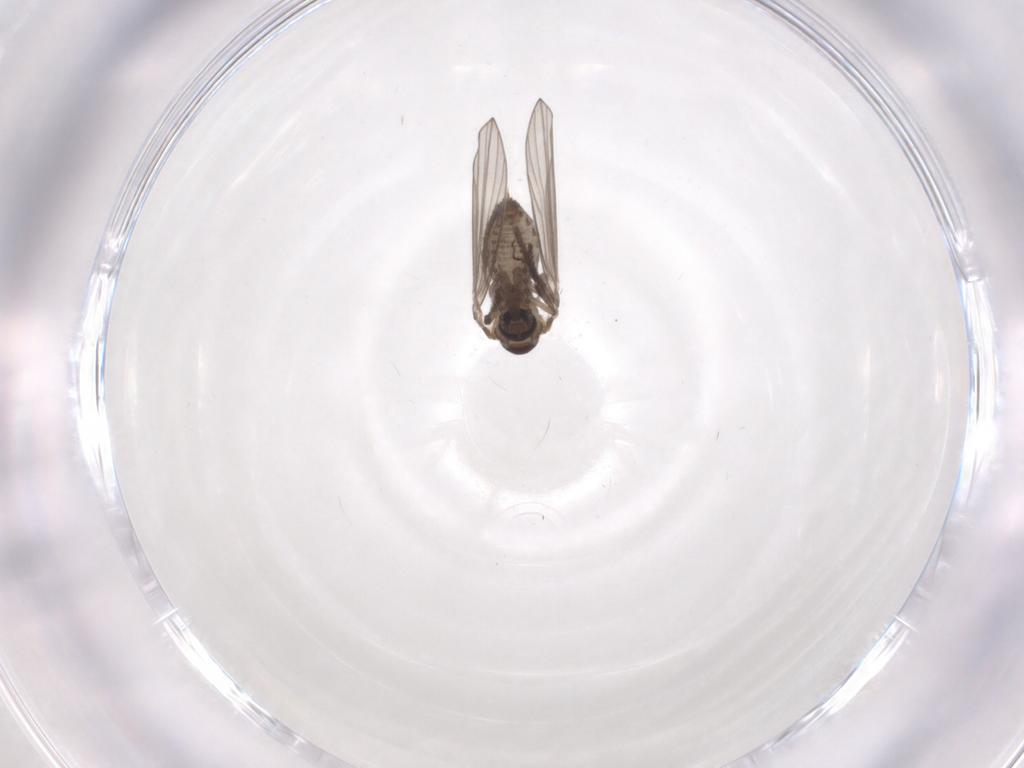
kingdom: Animalia
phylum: Arthropoda
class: Insecta
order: Diptera
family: Psychodidae
